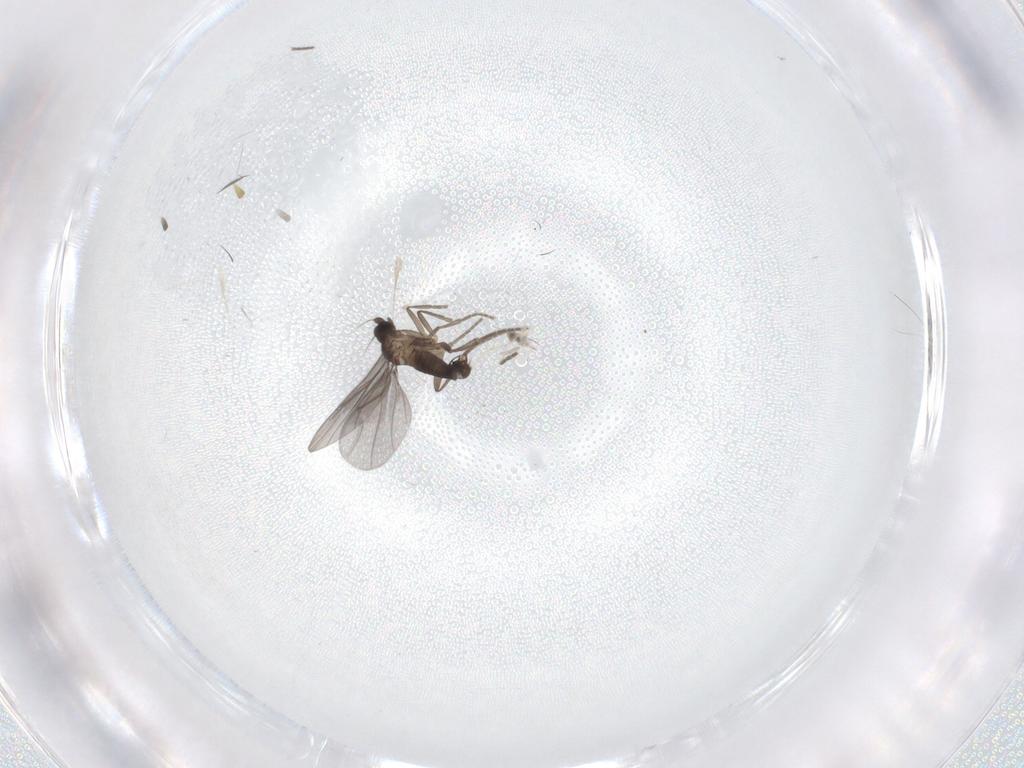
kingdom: Animalia
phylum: Arthropoda
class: Insecta
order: Diptera
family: Phoridae
